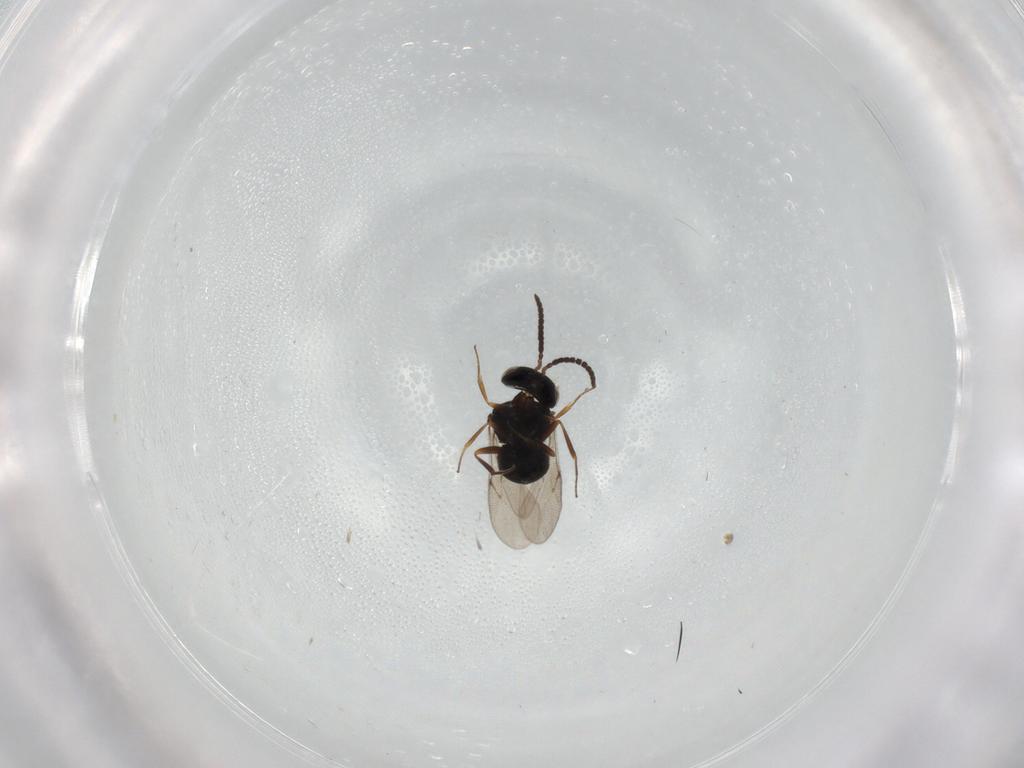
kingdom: Animalia
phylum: Arthropoda
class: Insecta
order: Hymenoptera
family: Scelionidae
